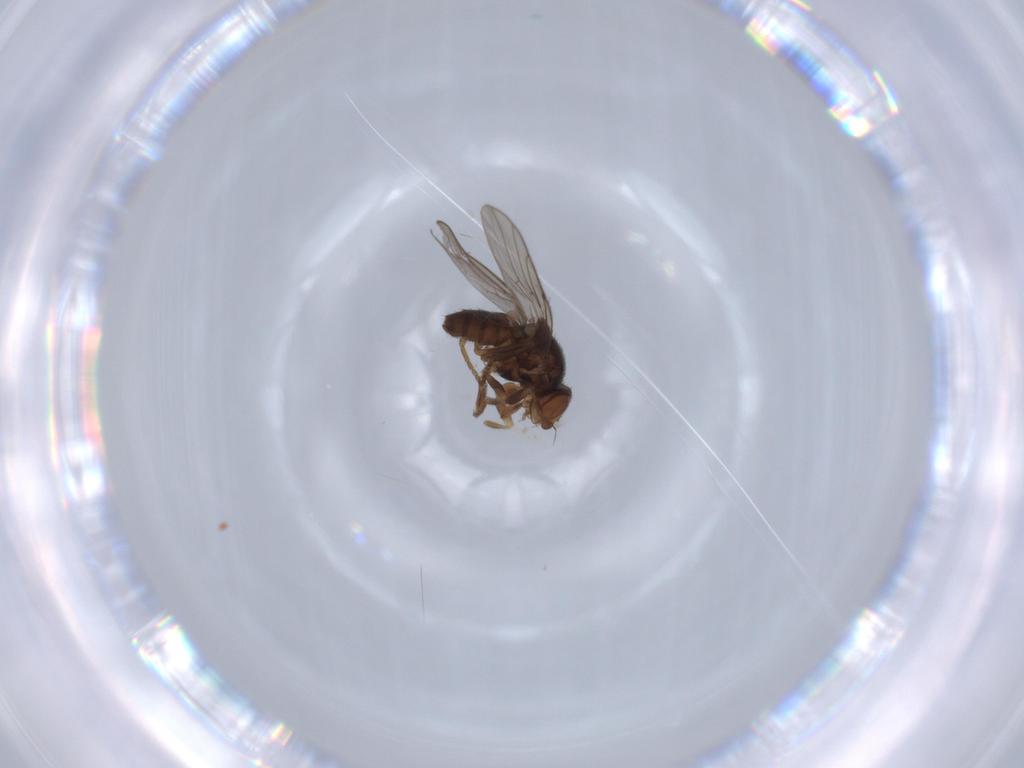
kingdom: Animalia
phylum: Arthropoda
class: Insecta
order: Diptera
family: Chloropidae
